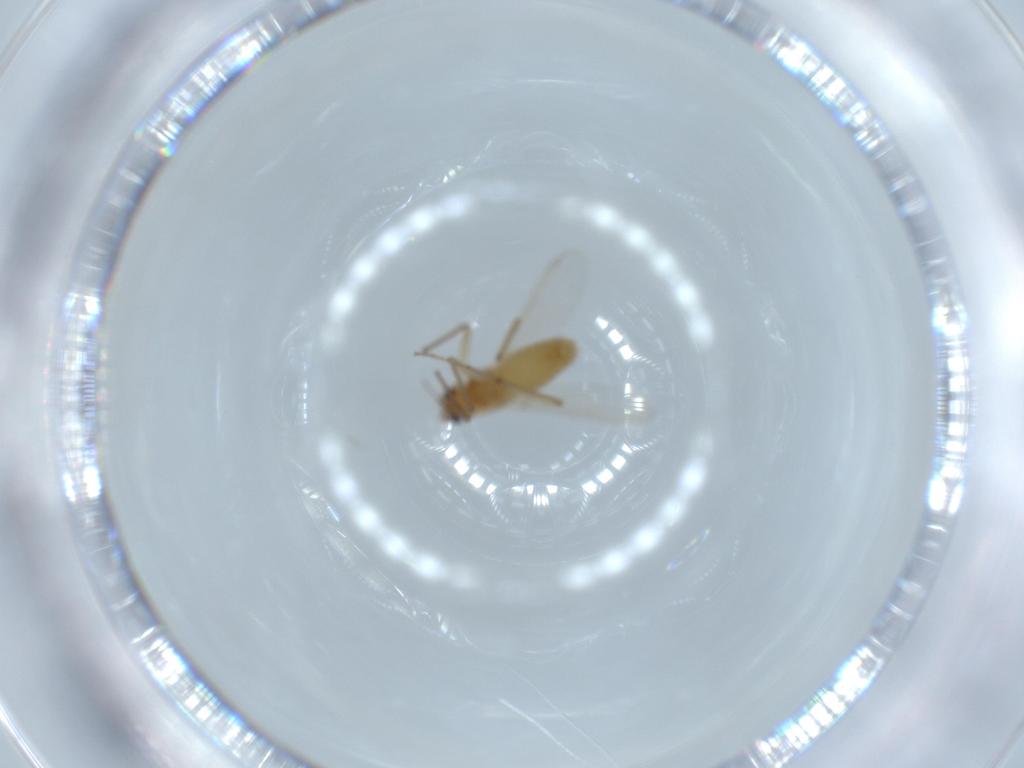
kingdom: Animalia
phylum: Arthropoda
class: Insecta
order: Diptera
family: Chironomidae
